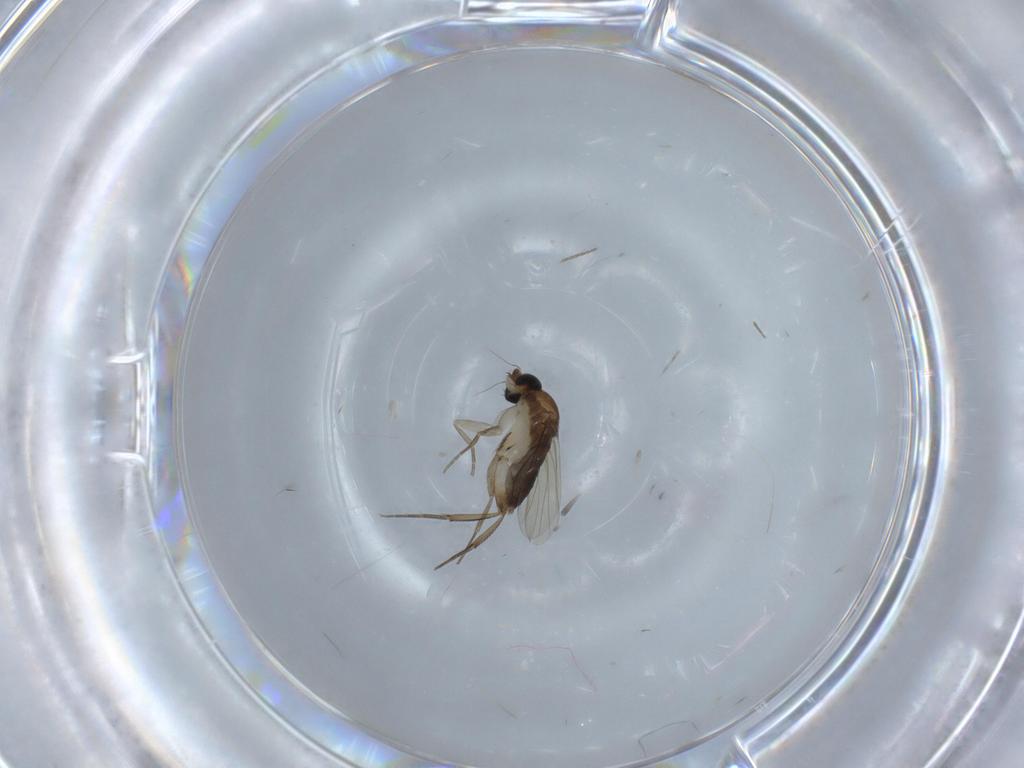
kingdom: Animalia
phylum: Arthropoda
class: Insecta
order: Diptera
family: Phoridae
